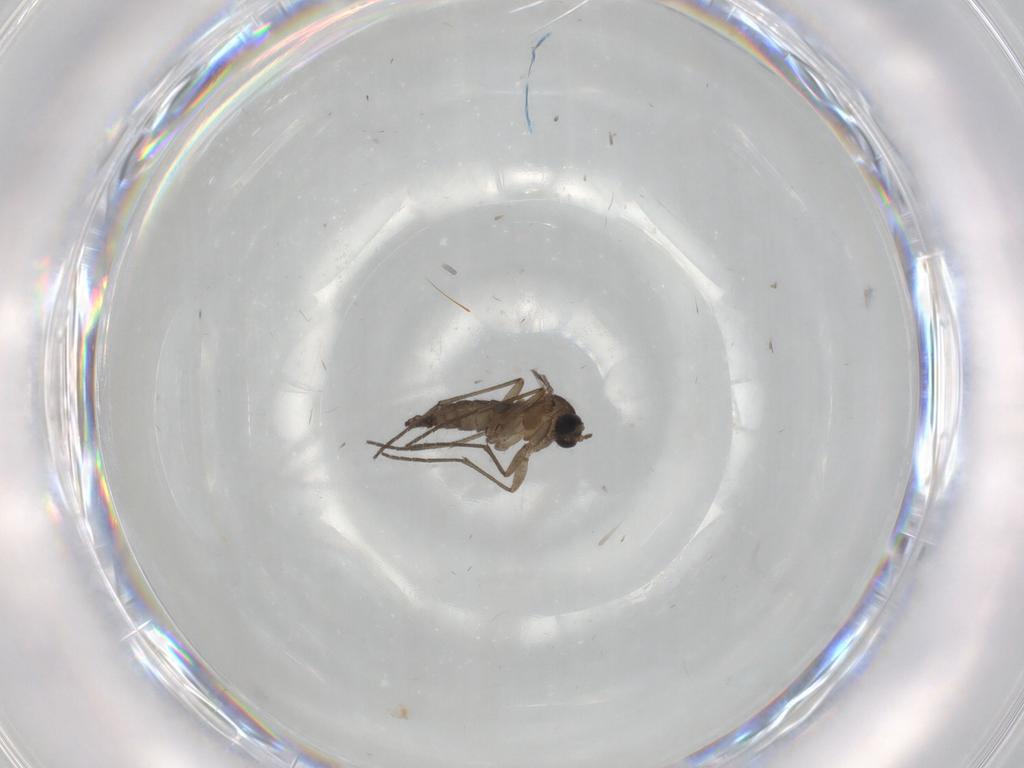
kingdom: Animalia
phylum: Arthropoda
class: Insecta
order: Diptera
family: Sciaridae
